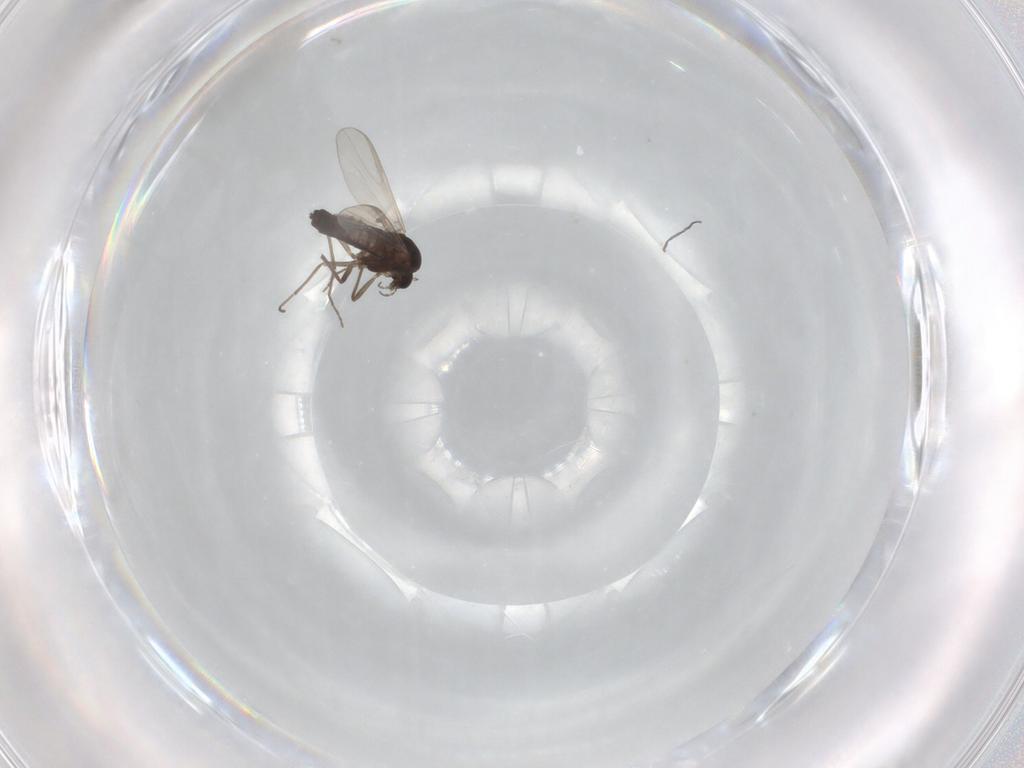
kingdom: Animalia
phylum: Arthropoda
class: Insecta
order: Diptera
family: Chironomidae
